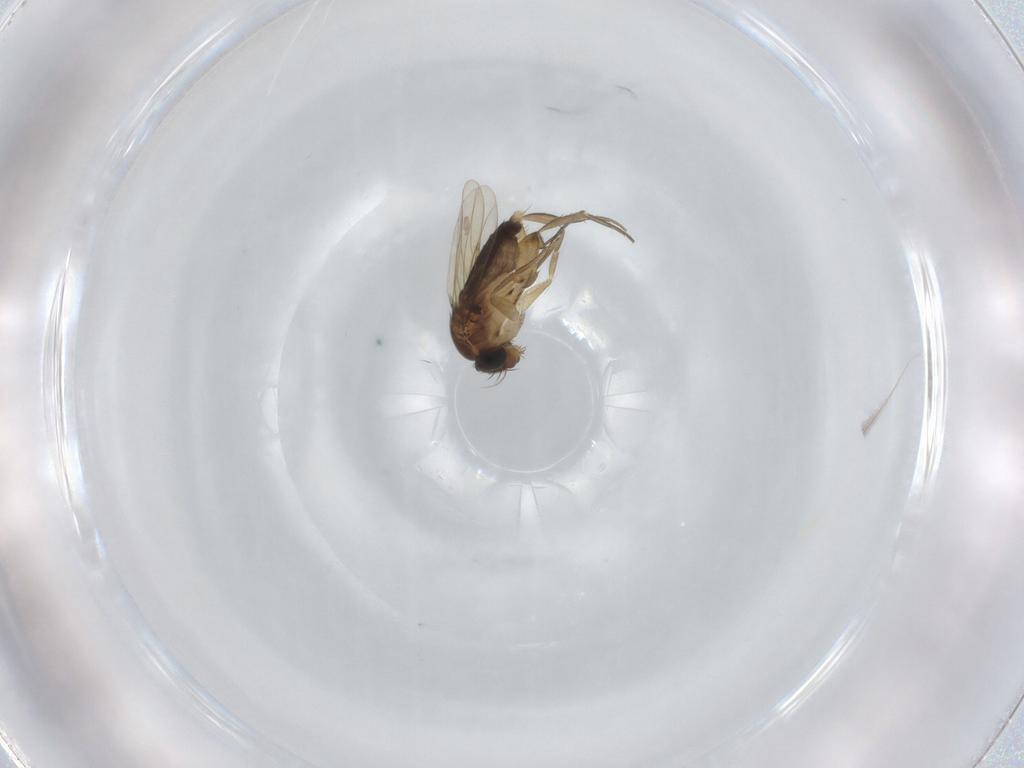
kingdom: Animalia
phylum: Arthropoda
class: Insecta
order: Diptera
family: Phoridae
